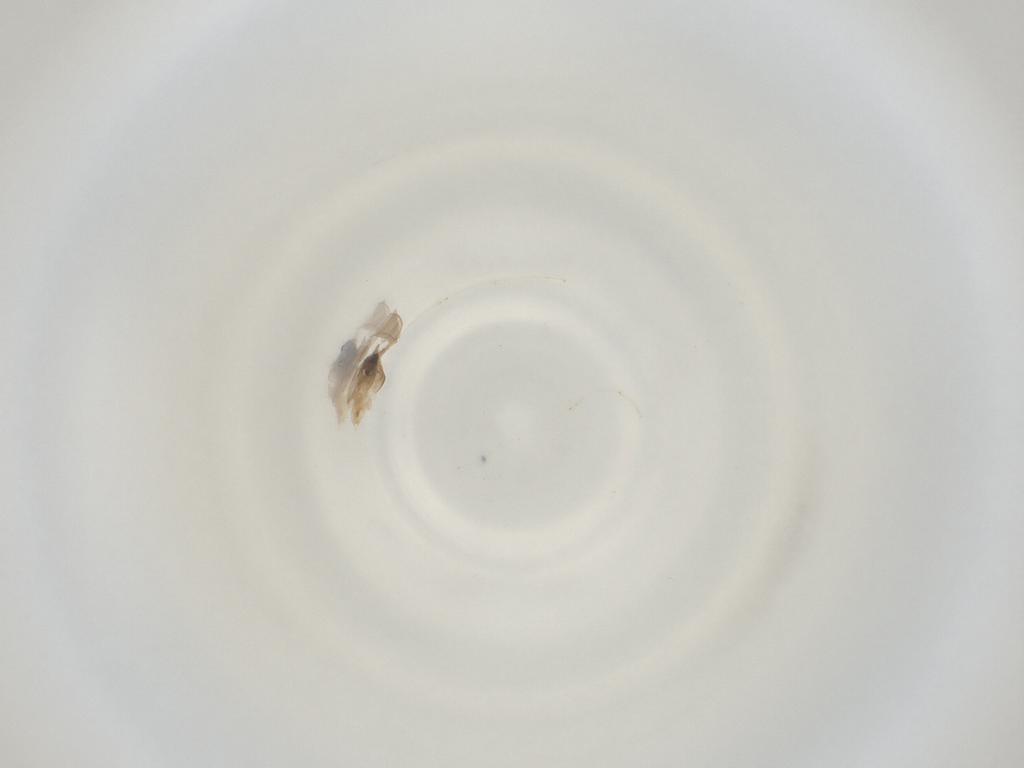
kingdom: Animalia
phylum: Arthropoda
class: Insecta
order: Diptera
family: Cecidomyiidae
